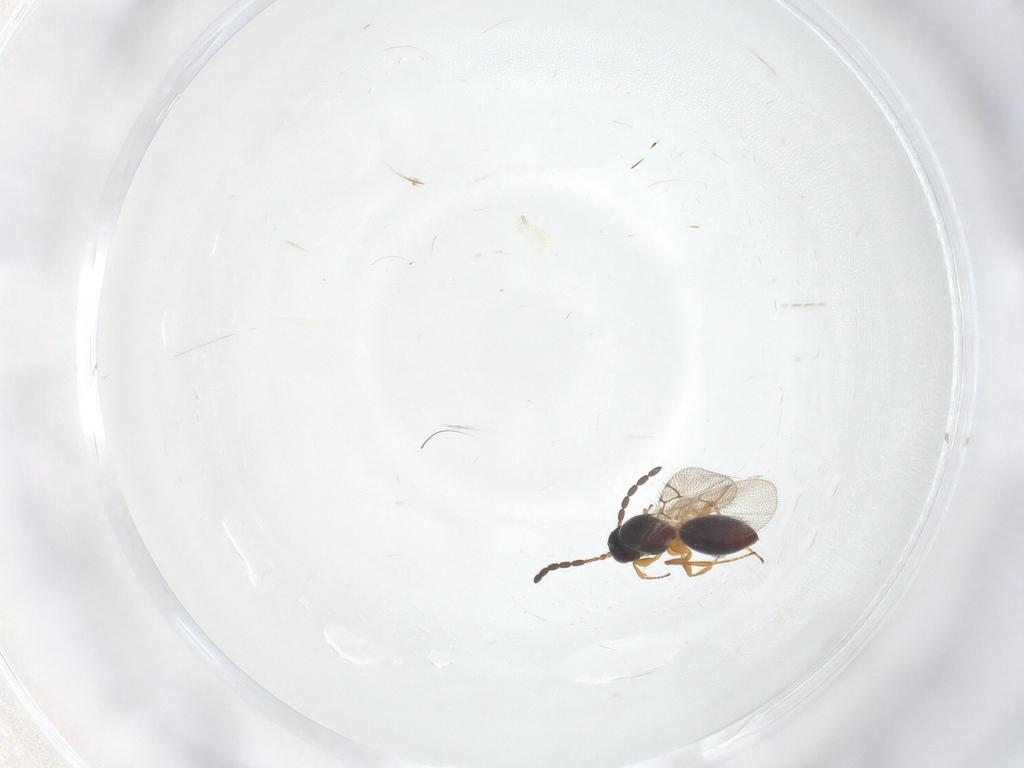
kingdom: Animalia
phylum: Arthropoda
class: Insecta
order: Hymenoptera
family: Figitidae
